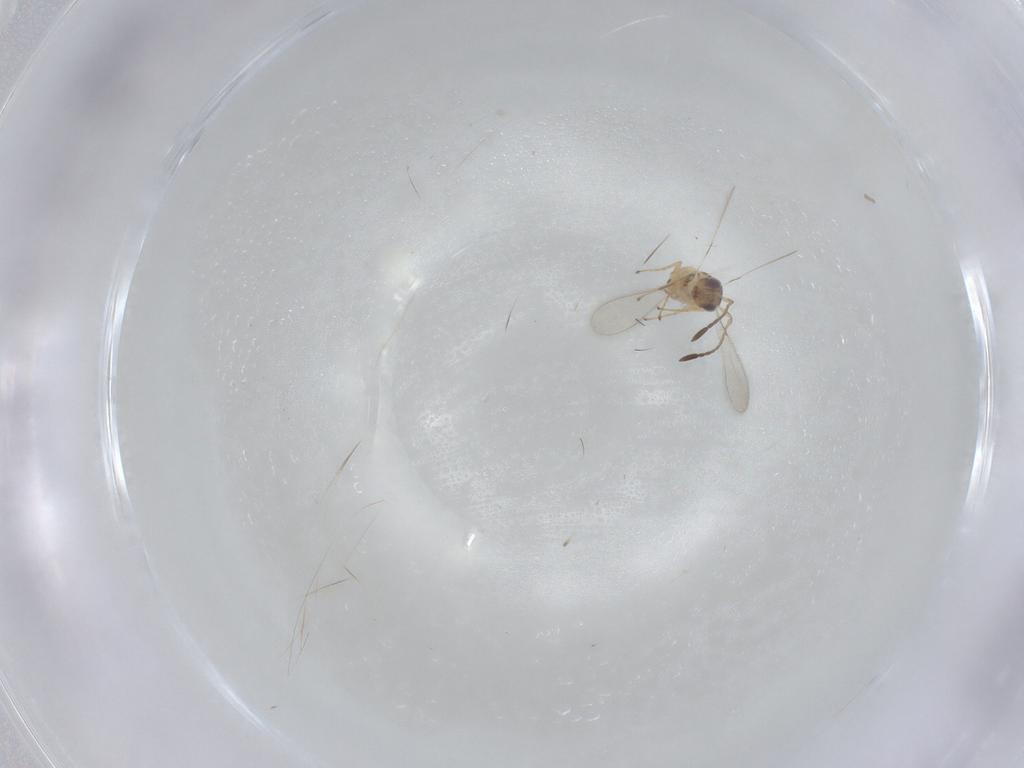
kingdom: Animalia
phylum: Arthropoda
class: Insecta
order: Hymenoptera
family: Mymaridae
